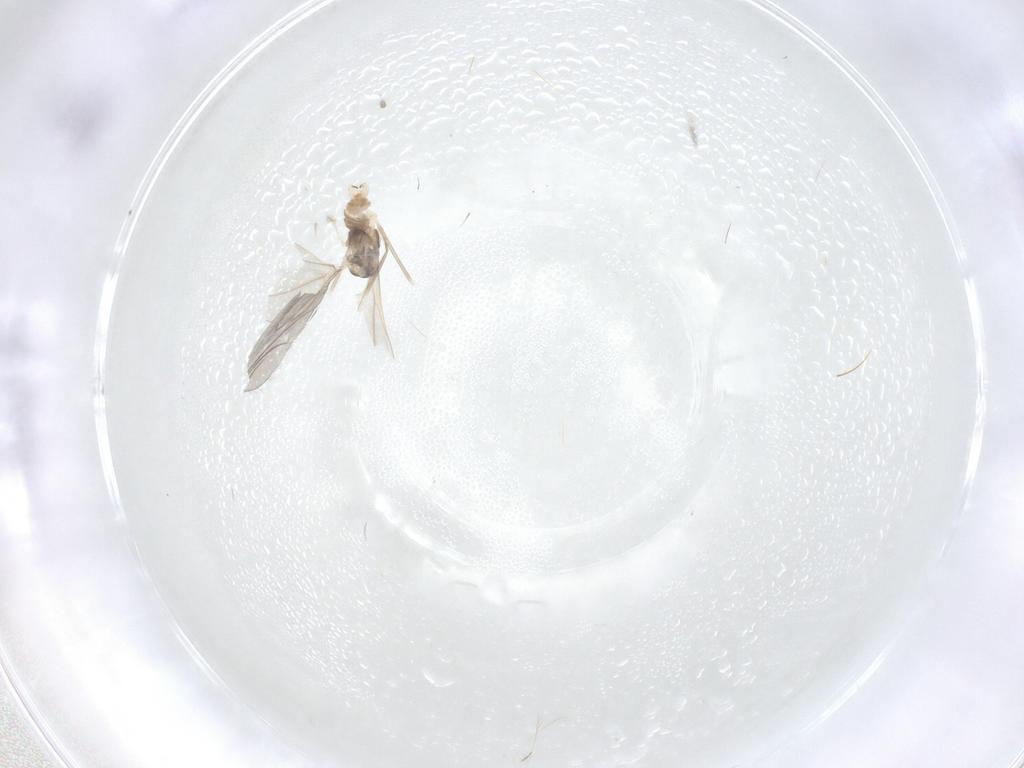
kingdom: Animalia
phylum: Arthropoda
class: Insecta
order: Diptera
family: Cecidomyiidae
